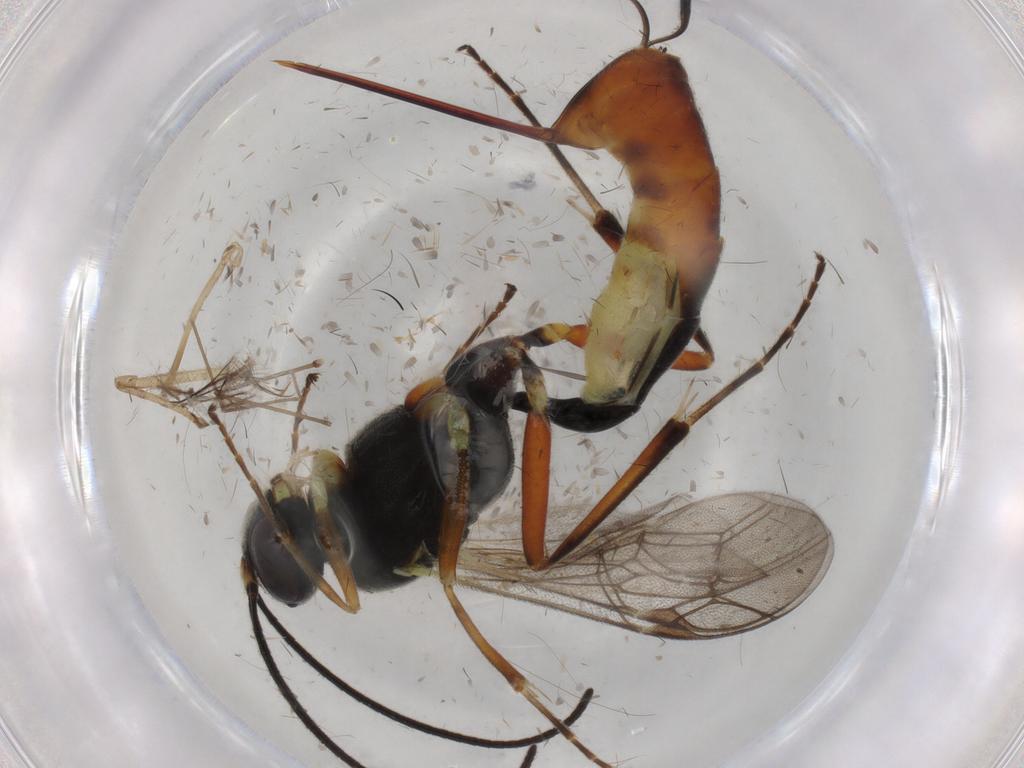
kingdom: Animalia
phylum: Arthropoda
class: Insecta
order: Hymenoptera
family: Ichneumonidae
